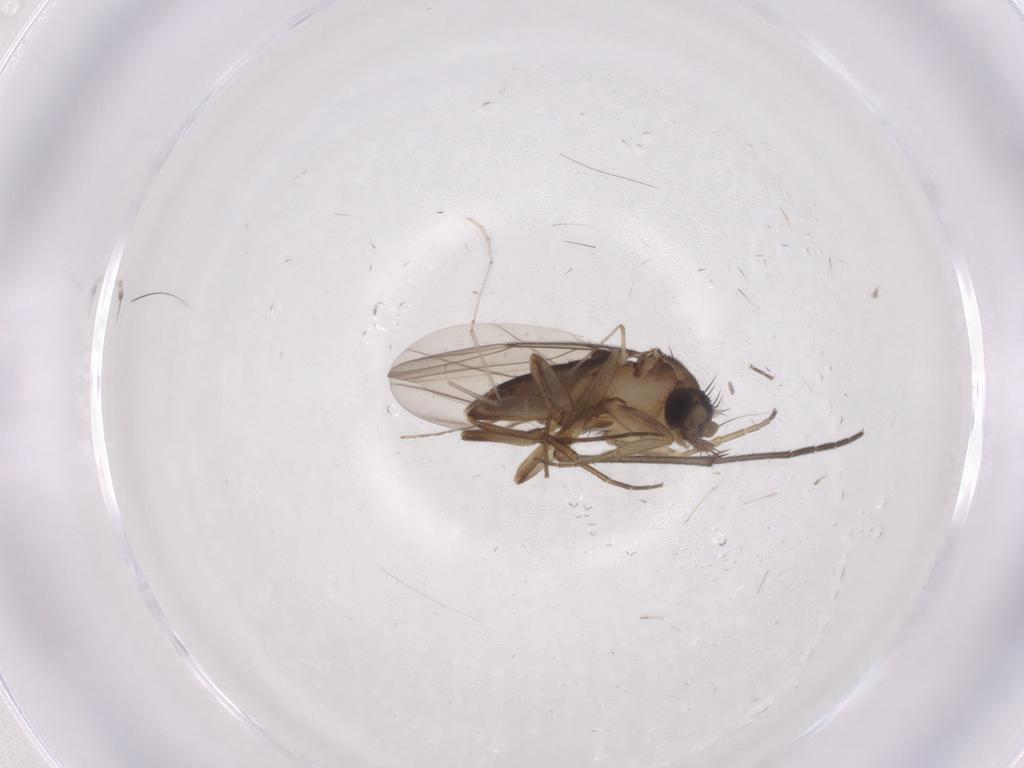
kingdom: Animalia
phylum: Arthropoda
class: Insecta
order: Diptera
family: Phoridae
